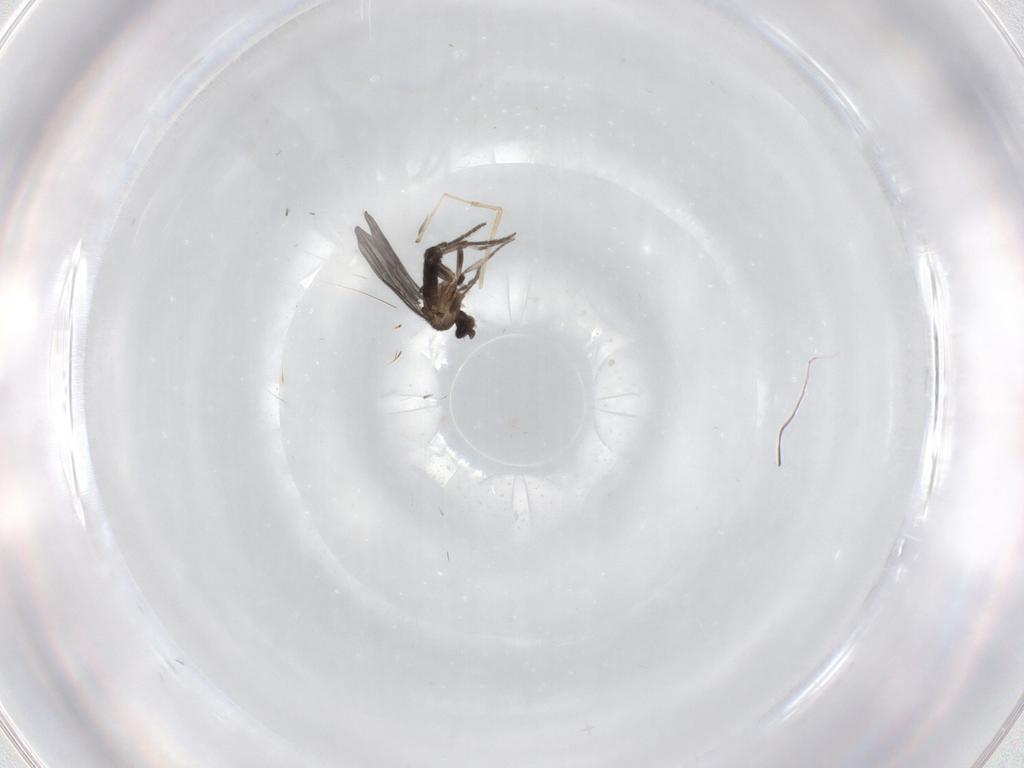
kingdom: Animalia
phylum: Arthropoda
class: Insecta
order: Diptera
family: Phoridae
